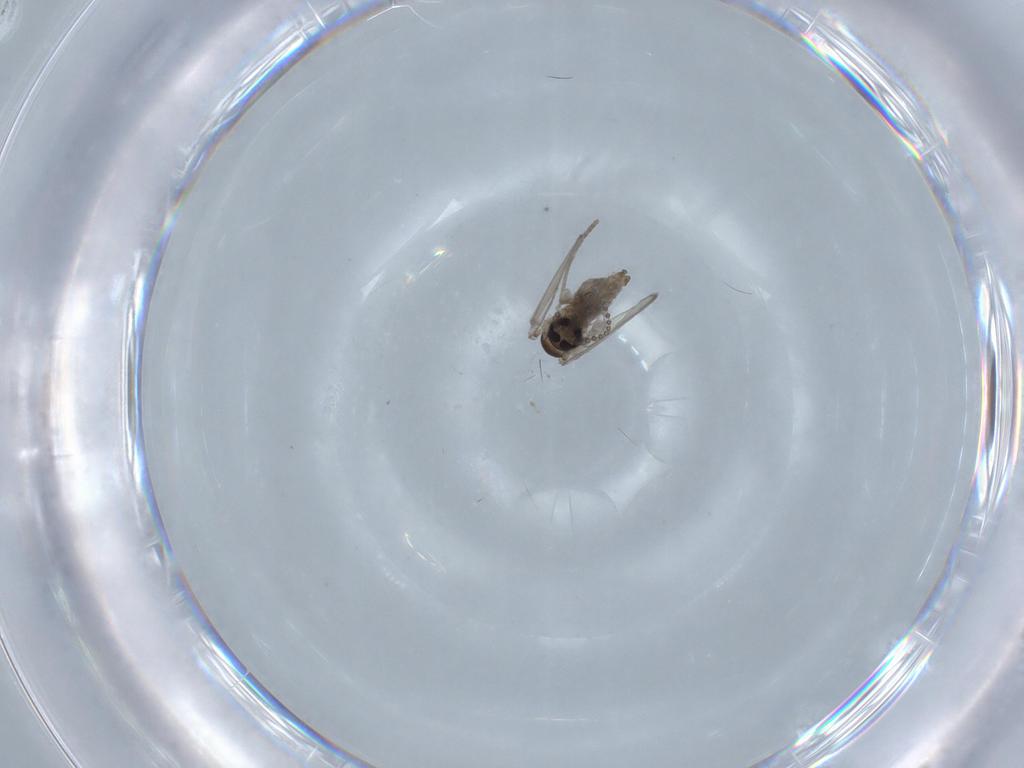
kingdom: Animalia
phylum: Arthropoda
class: Insecta
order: Diptera
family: Psychodidae
